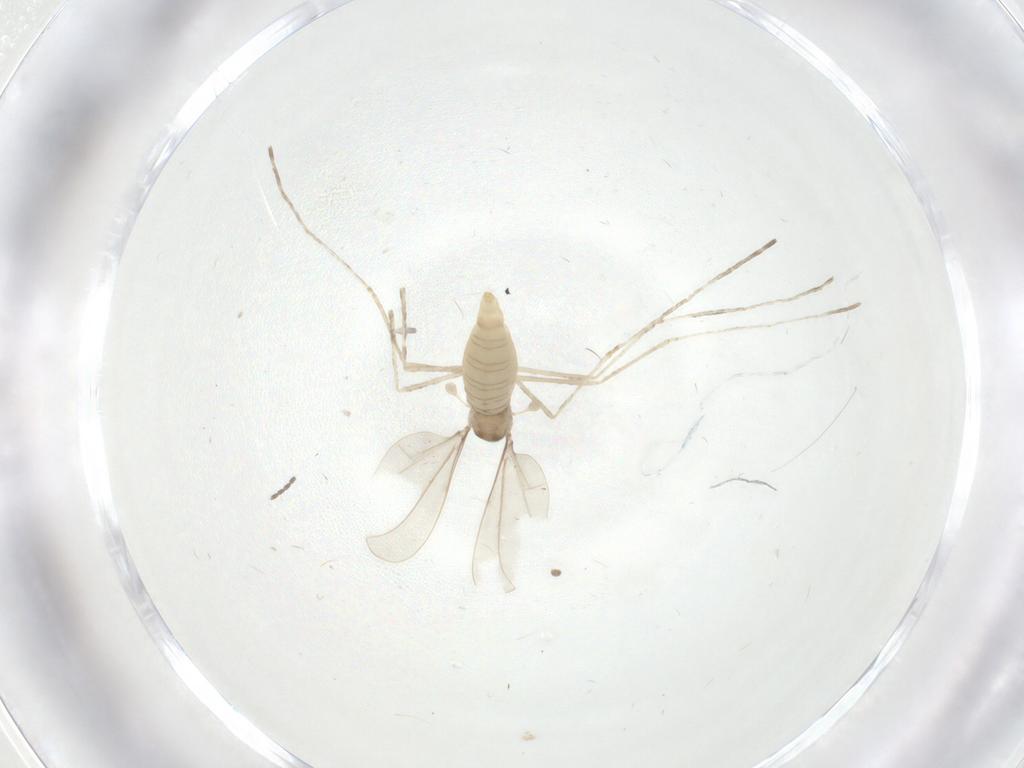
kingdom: Animalia
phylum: Arthropoda
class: Insecta
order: Diptera
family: Cecidomyiidae
